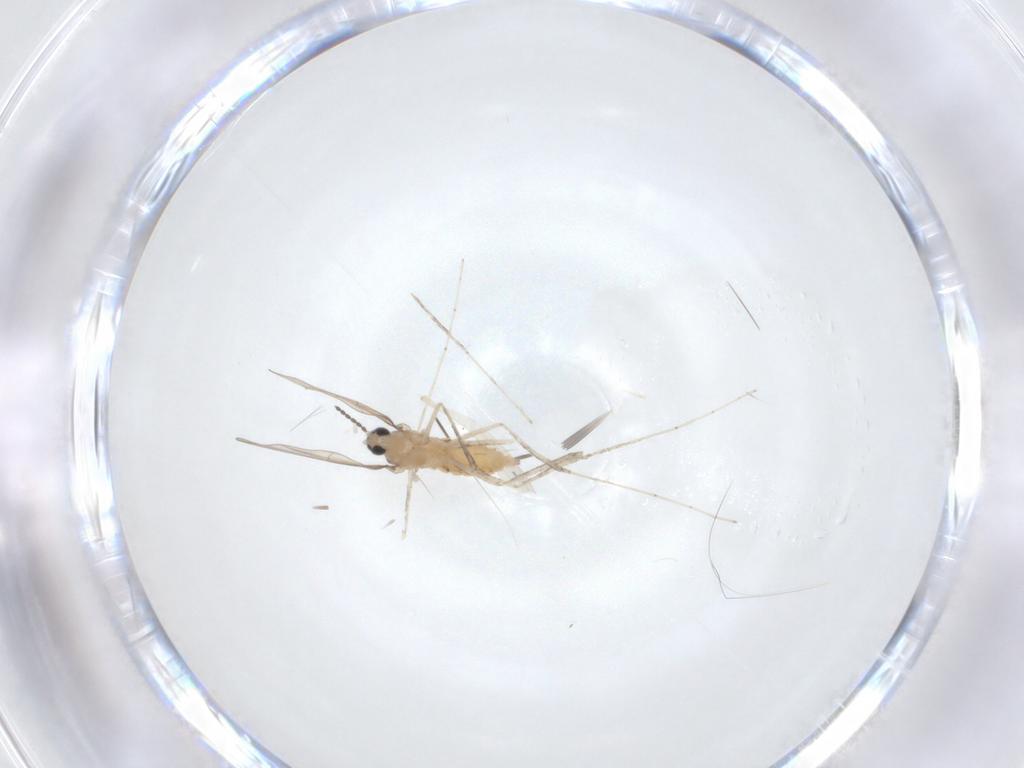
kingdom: Animalia
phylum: Arthropoda
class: Insecta
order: Diptera
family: Cecidomyiidae
